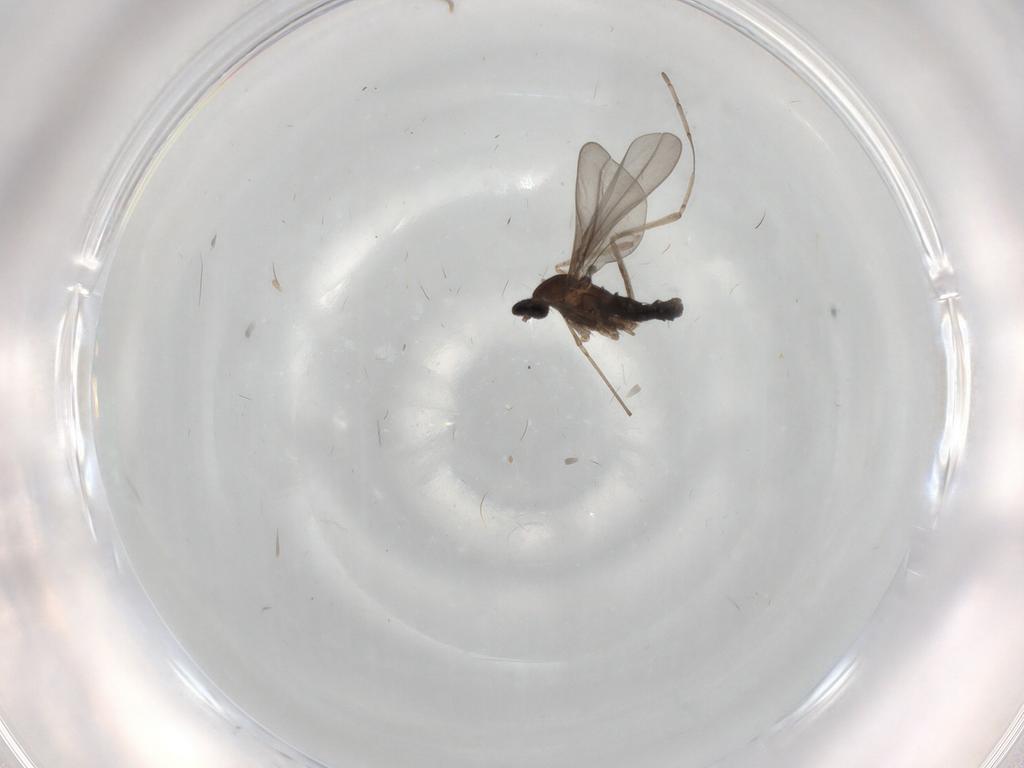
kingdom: Animalia
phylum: Arthropoda
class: Insecta
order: Diptera
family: Cecidomyiidae
